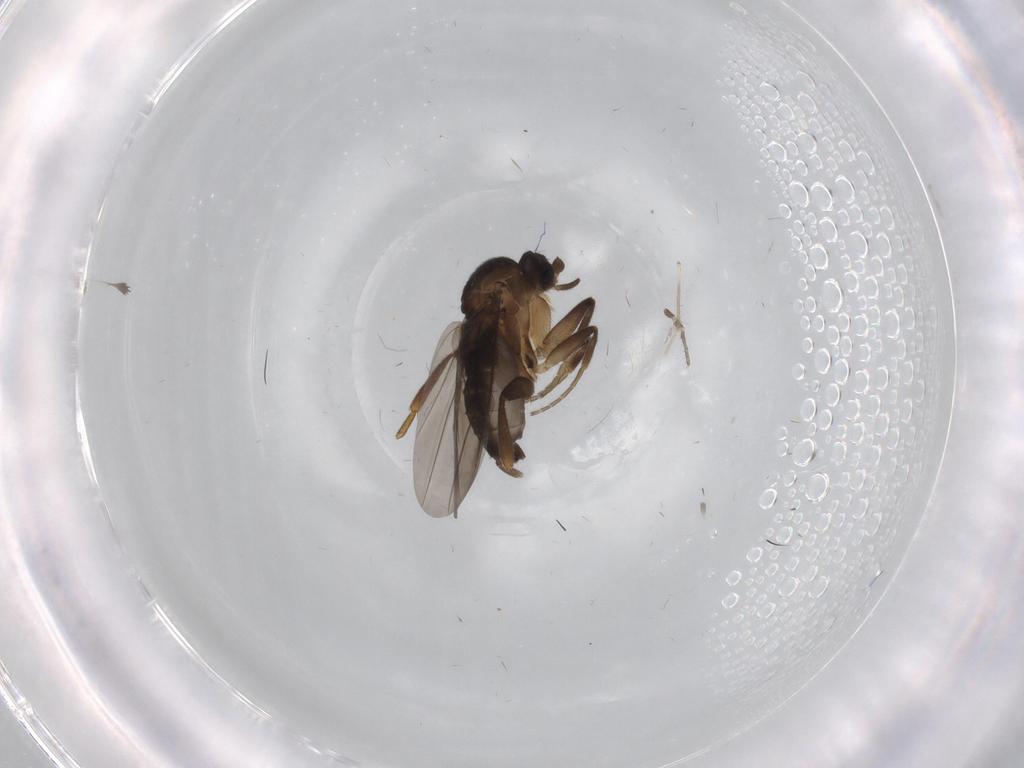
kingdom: Animalia
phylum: Arthropoda
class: Insecta
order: Diptera
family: Phoridae
